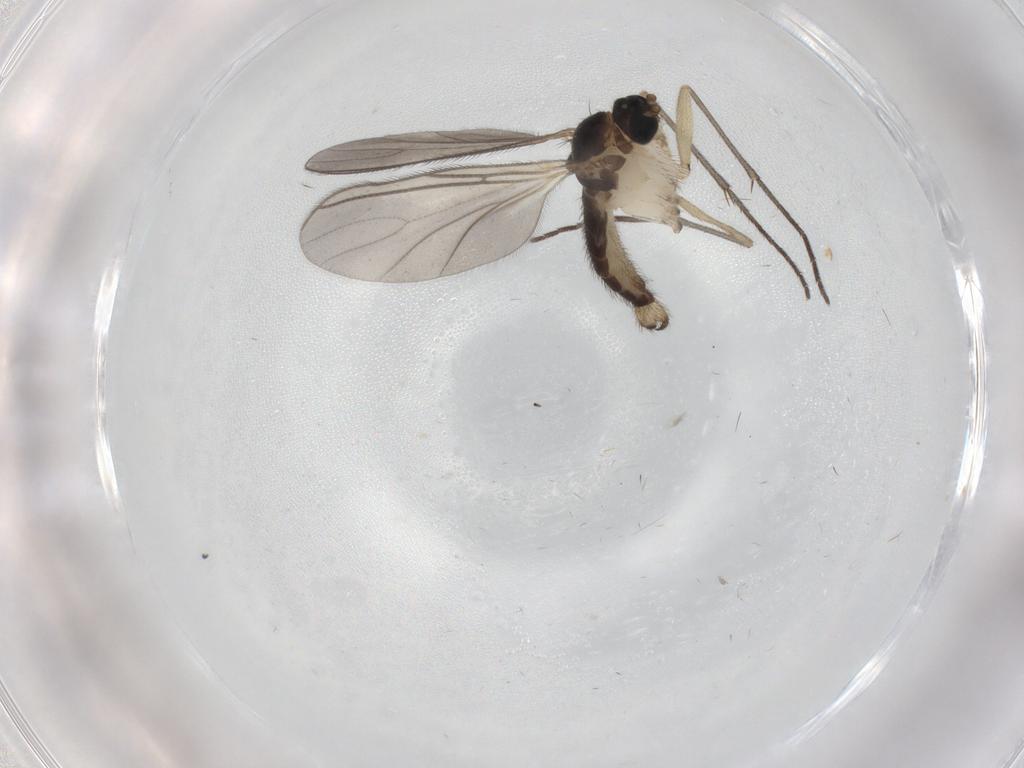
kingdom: Animalia
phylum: Arthropoda
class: Insecta
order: Diptera
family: Sciaridae
